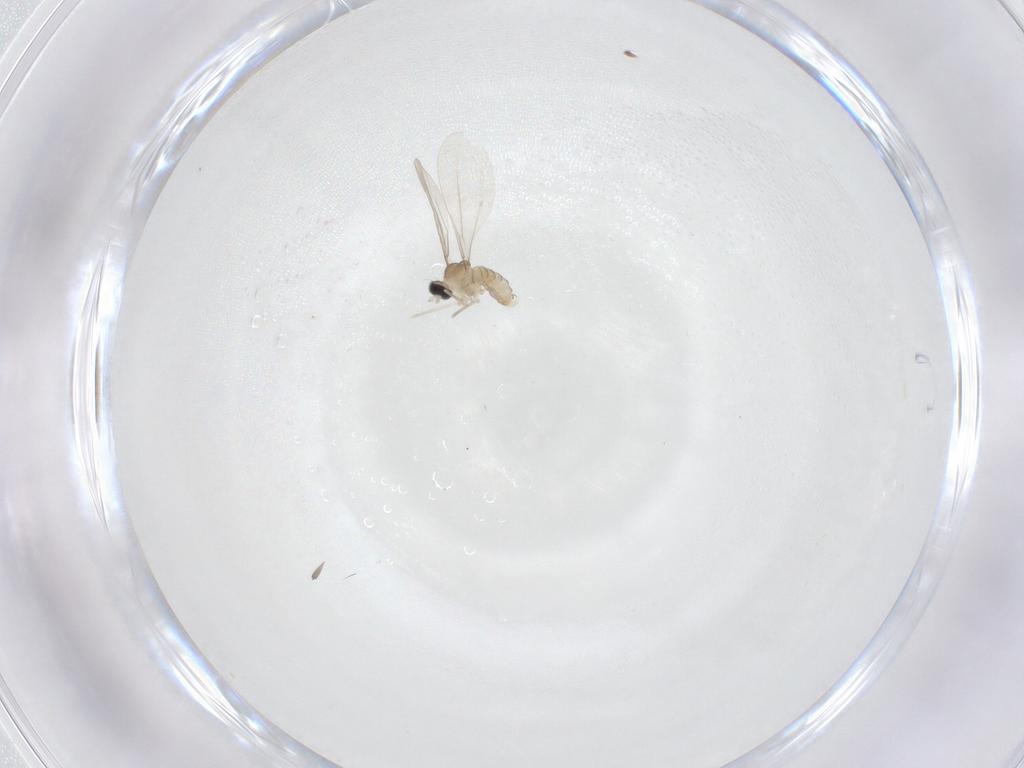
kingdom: Animalia
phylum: Arthropoda
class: Insecta
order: Diptera
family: Cecidomyiidae
